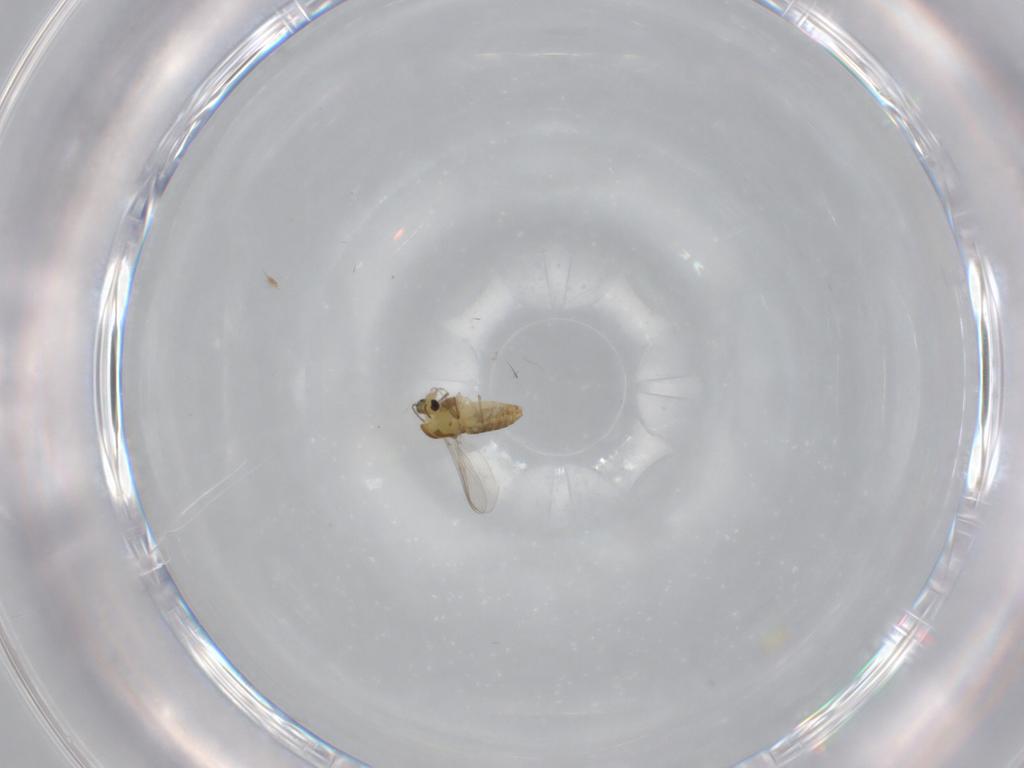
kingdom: Animalia
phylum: Arthropoda
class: Insecta
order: Diptera
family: Chironomidae
